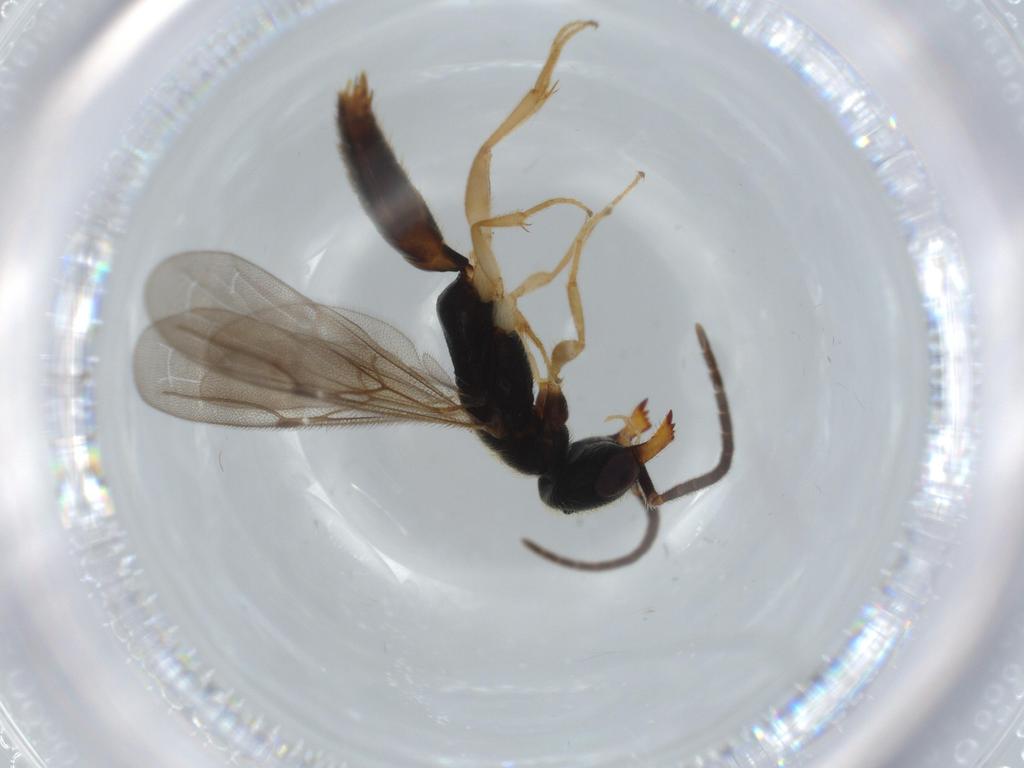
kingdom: Animalia
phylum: Arthropoda
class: Insecta
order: Hymenoptera
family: Bethylidae
